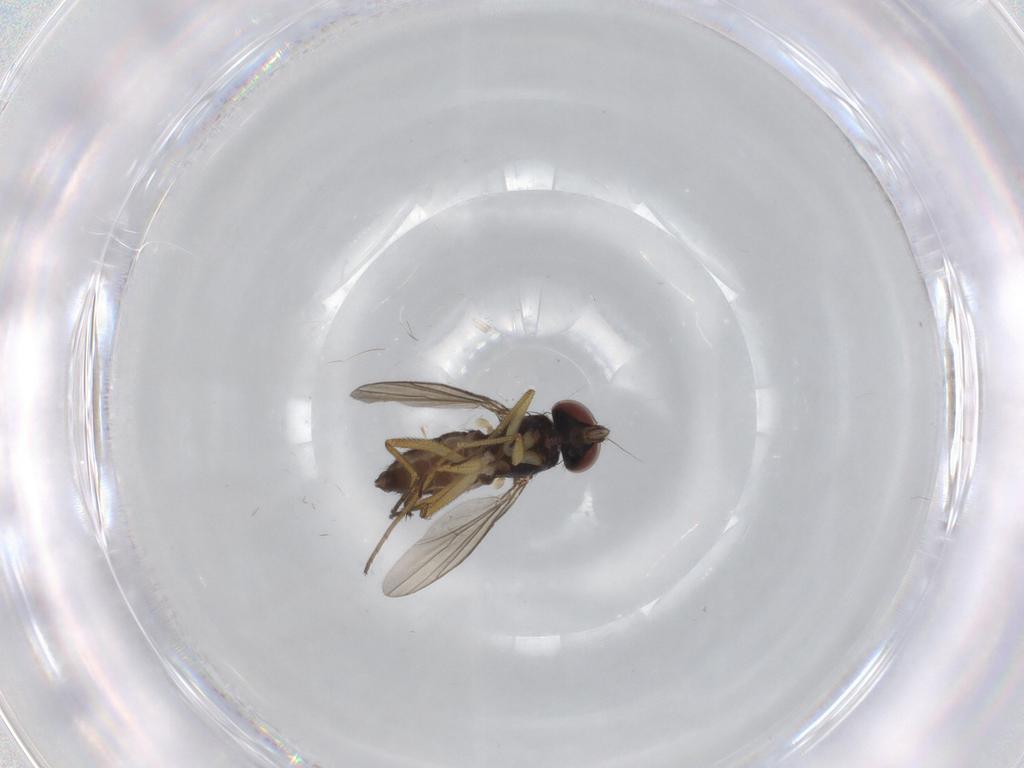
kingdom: Animalia
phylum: Arthropoda
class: Insecta
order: Diptera
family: Dolichopodidae
